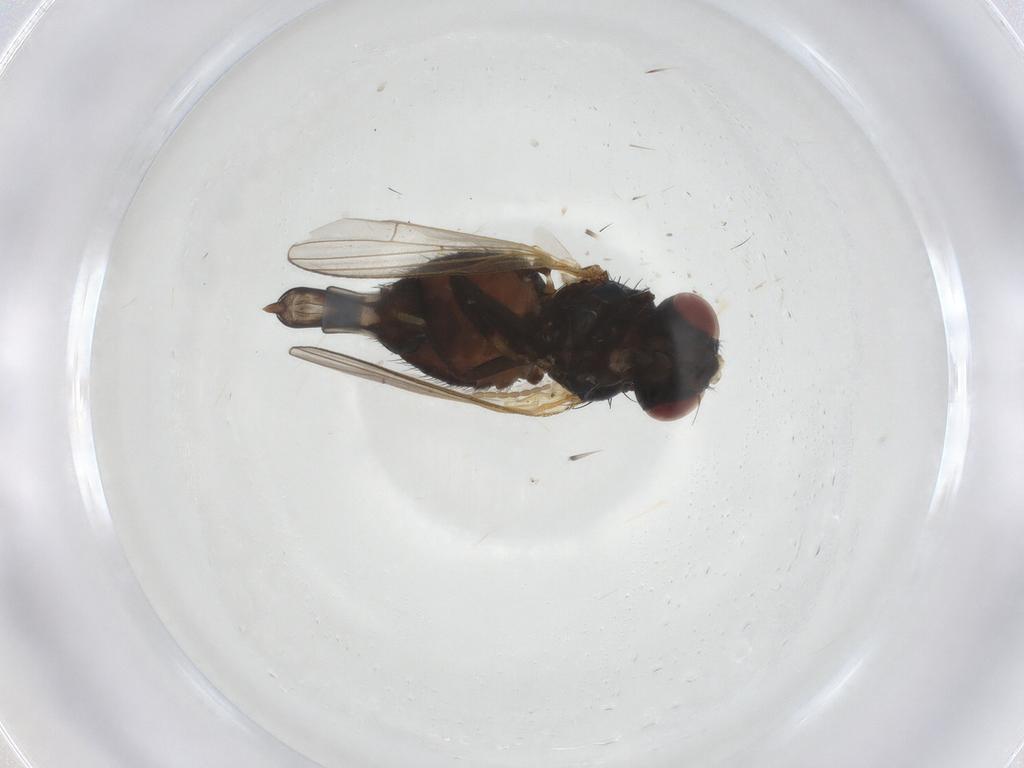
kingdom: Animalia
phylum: Arthropoda
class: Insecta
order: Diptera
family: Lonchaeidae
